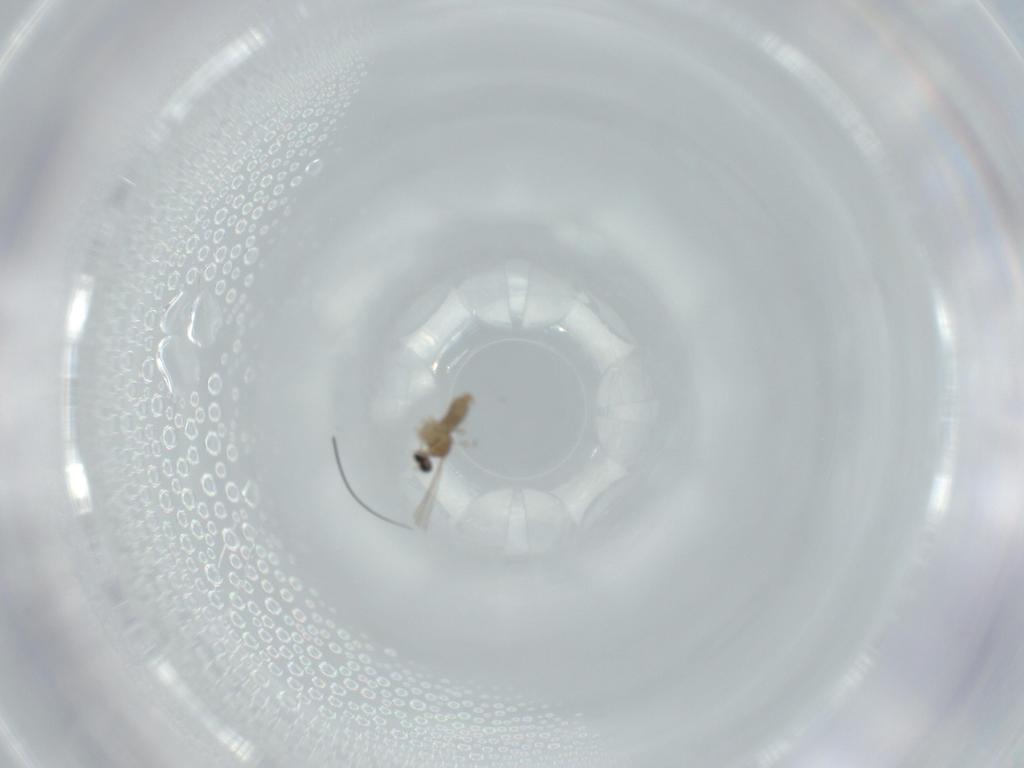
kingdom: Animalia
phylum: Arthropoda
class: Insecta
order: Diptera
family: Cecidomyiidae
